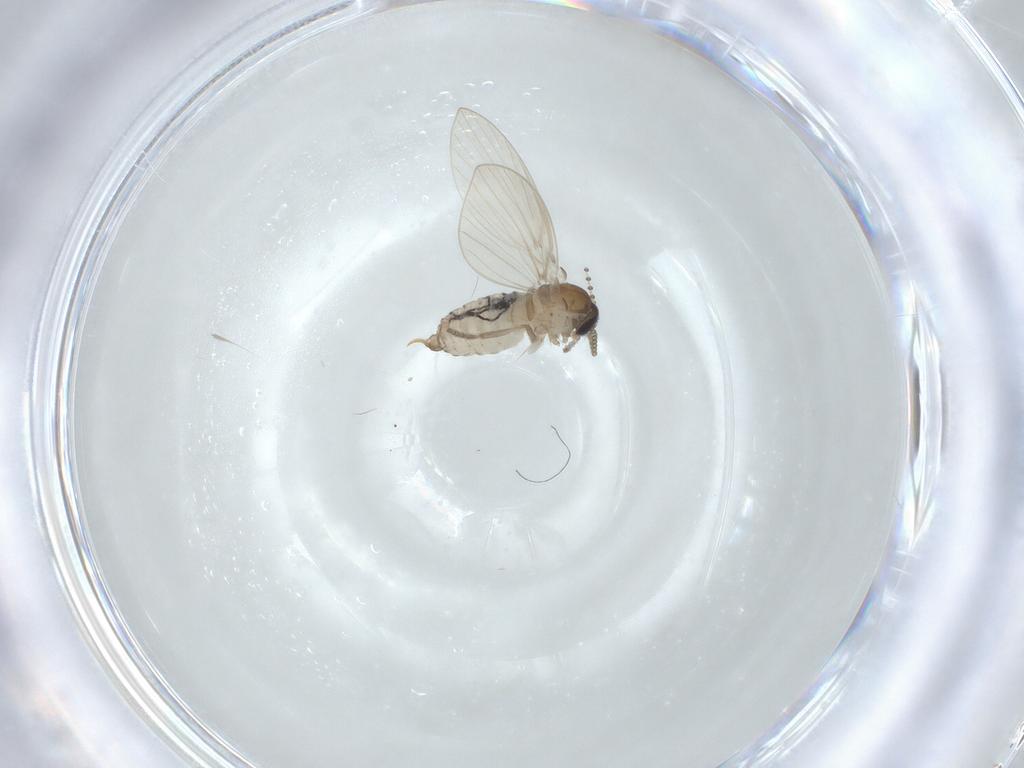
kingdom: Animalia
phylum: Arthropoda
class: Insecta
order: Diptera
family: Psychodidae
